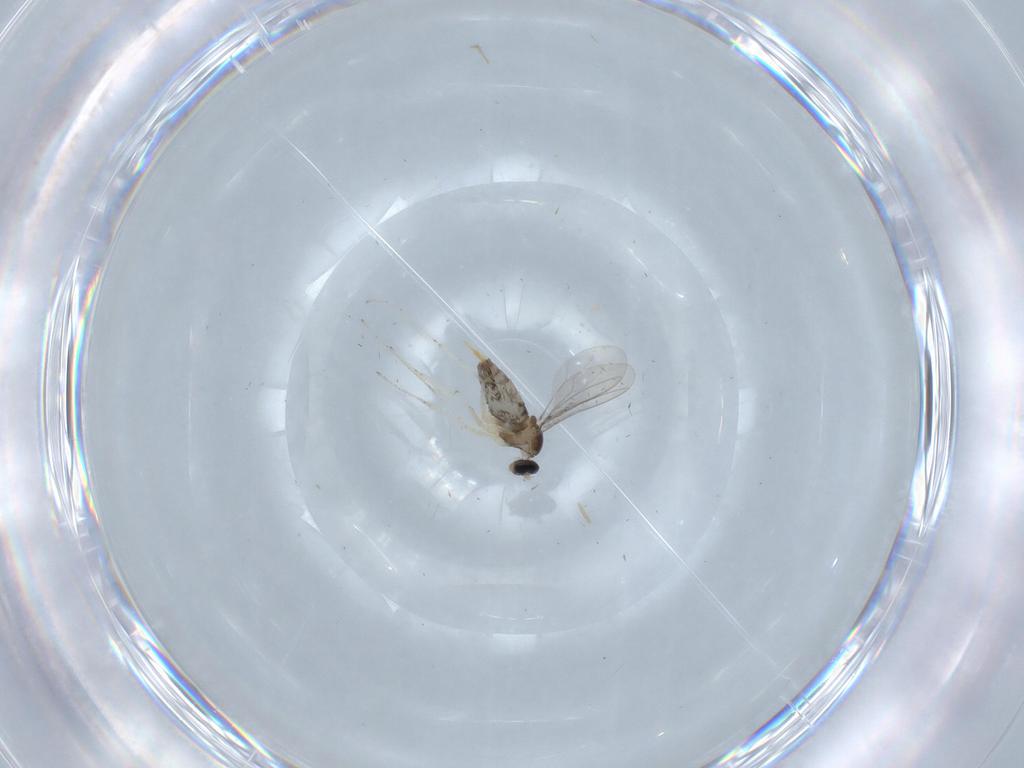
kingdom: Animalia
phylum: Arthropoda
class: Insecta
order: Diptera
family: Cecidomyiidae
